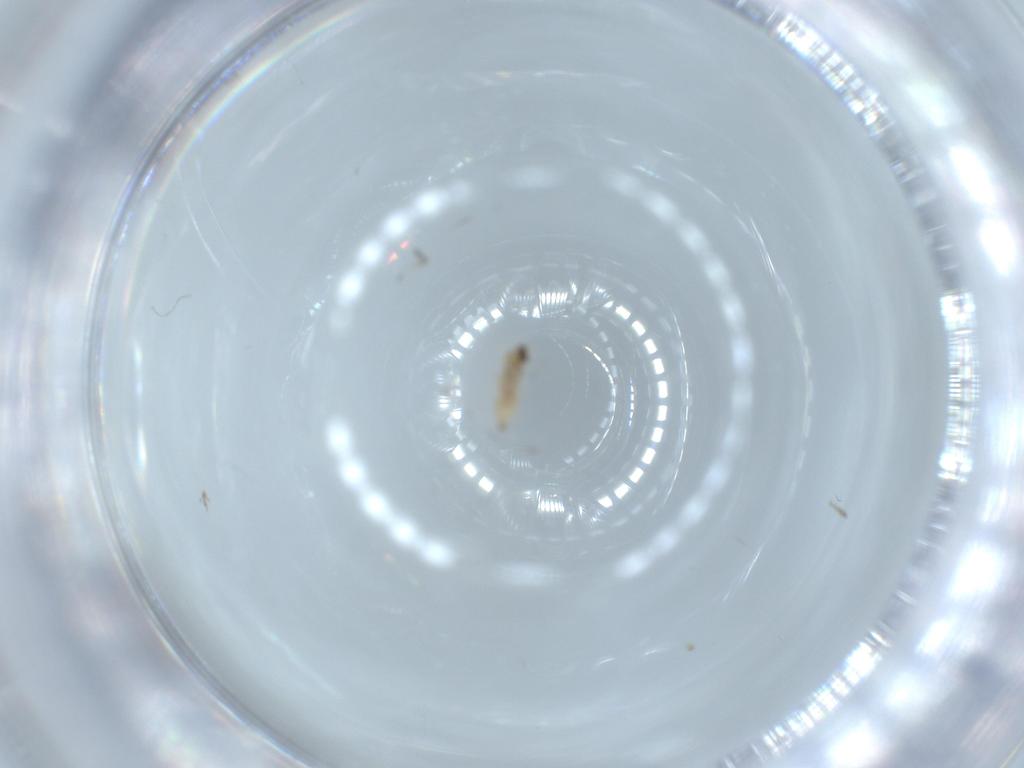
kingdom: Animalia
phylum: Arthropoda
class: Insecta
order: Diptera
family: Cecidomyiidae
